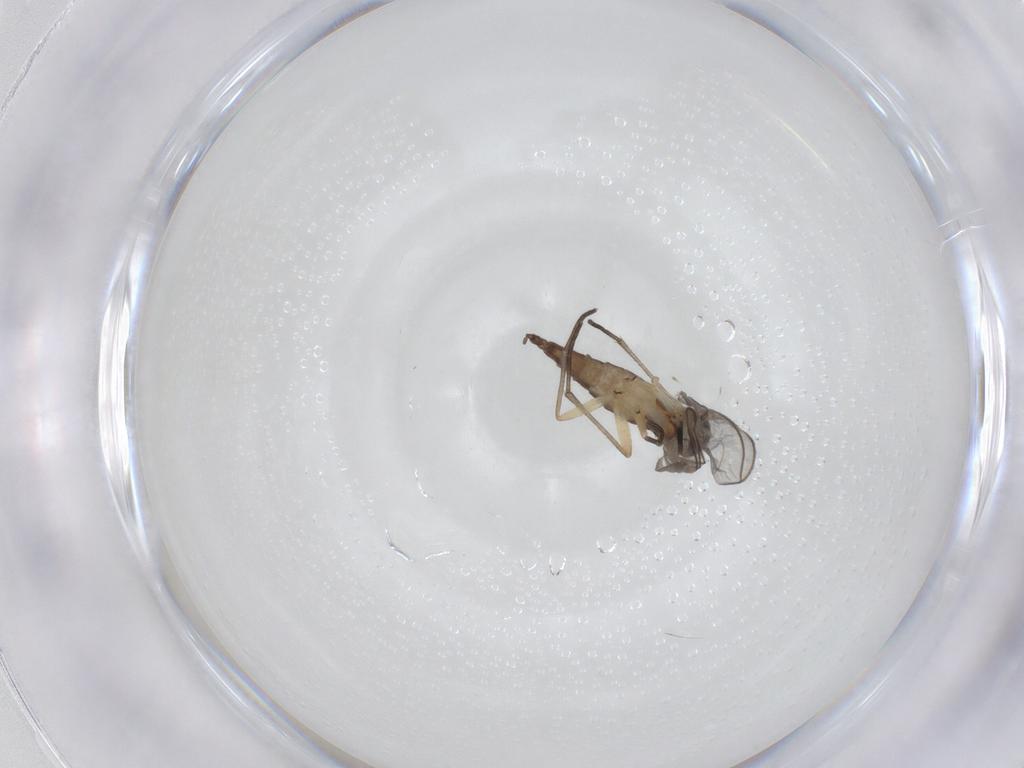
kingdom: Animalia
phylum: Arthropoda
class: Insecta
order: Diptera
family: Sciaridae
